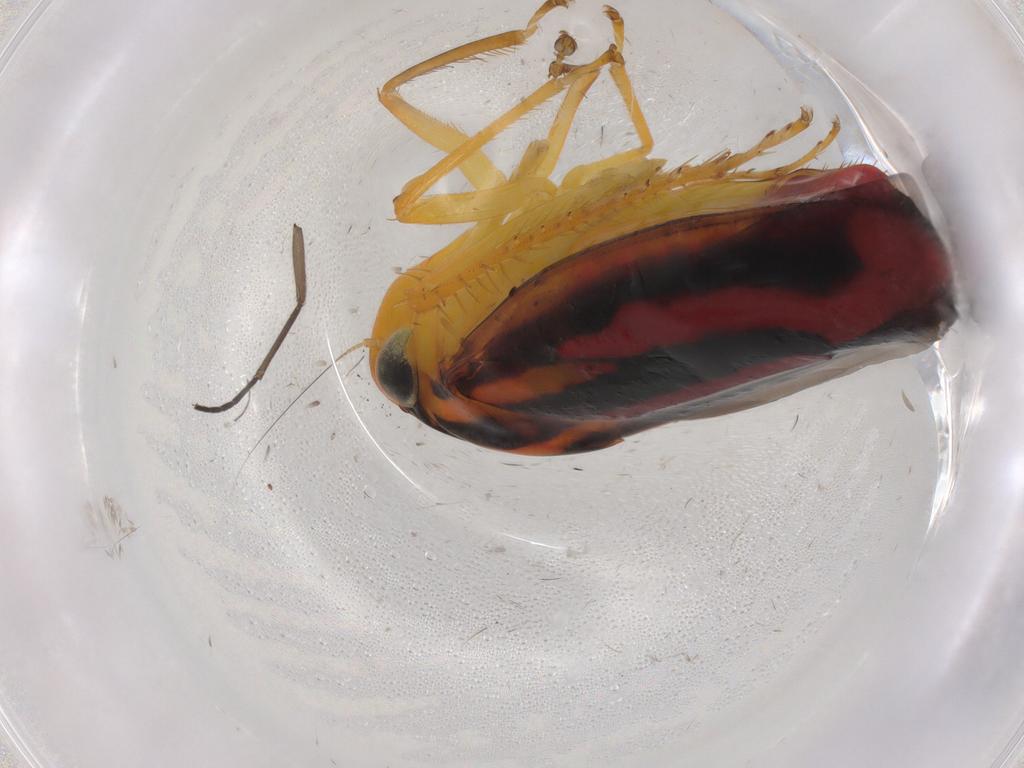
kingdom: Animalia
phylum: Arthropoda
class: Insecta
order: Hemiptera
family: Cicadellidae
